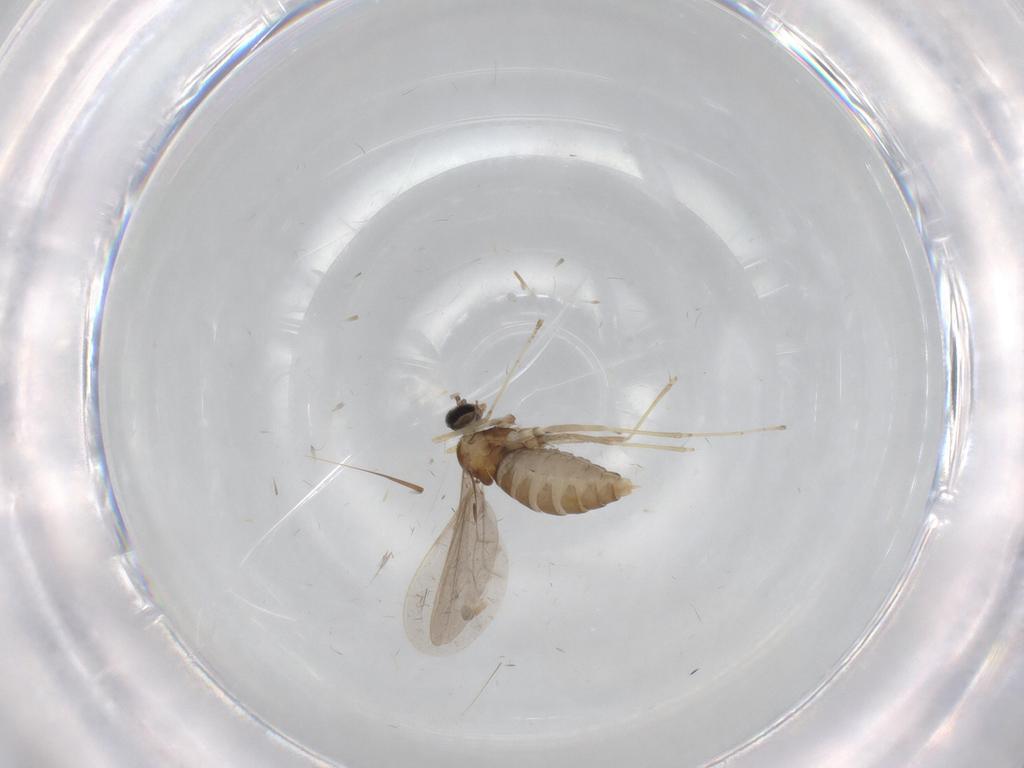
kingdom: Animalia
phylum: Arthropoda
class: Insecta
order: Diptera
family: Cecidomyiidae
